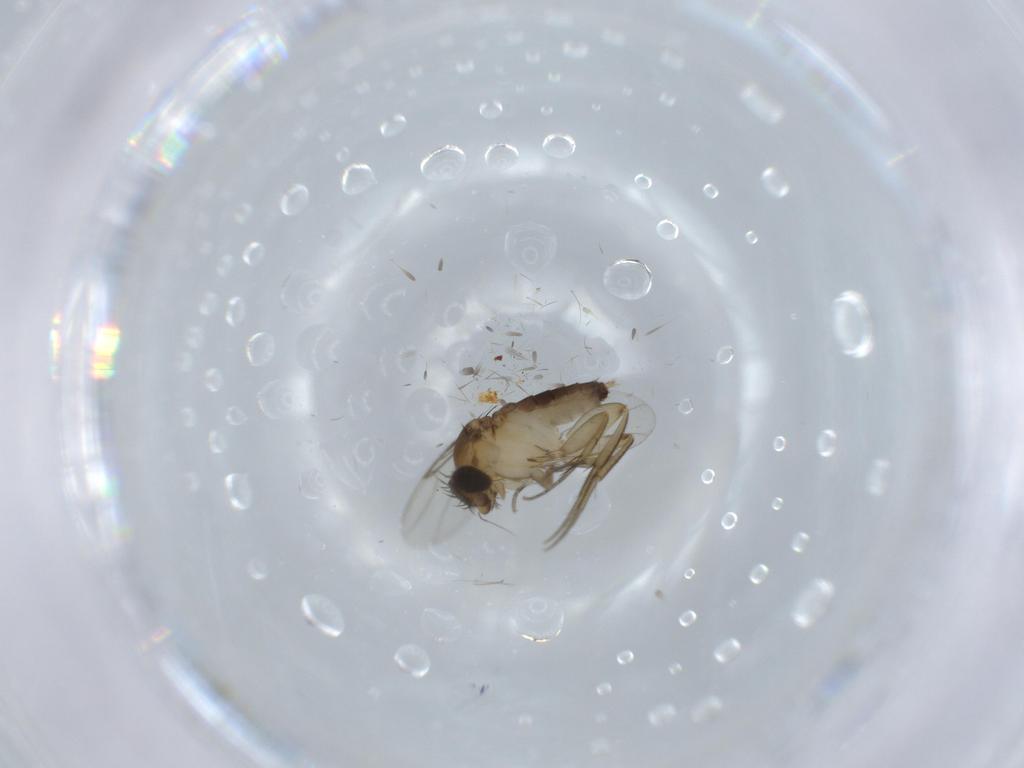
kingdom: Animalia
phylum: Arthropoda
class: Insecta
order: Diptera
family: Phoridae
